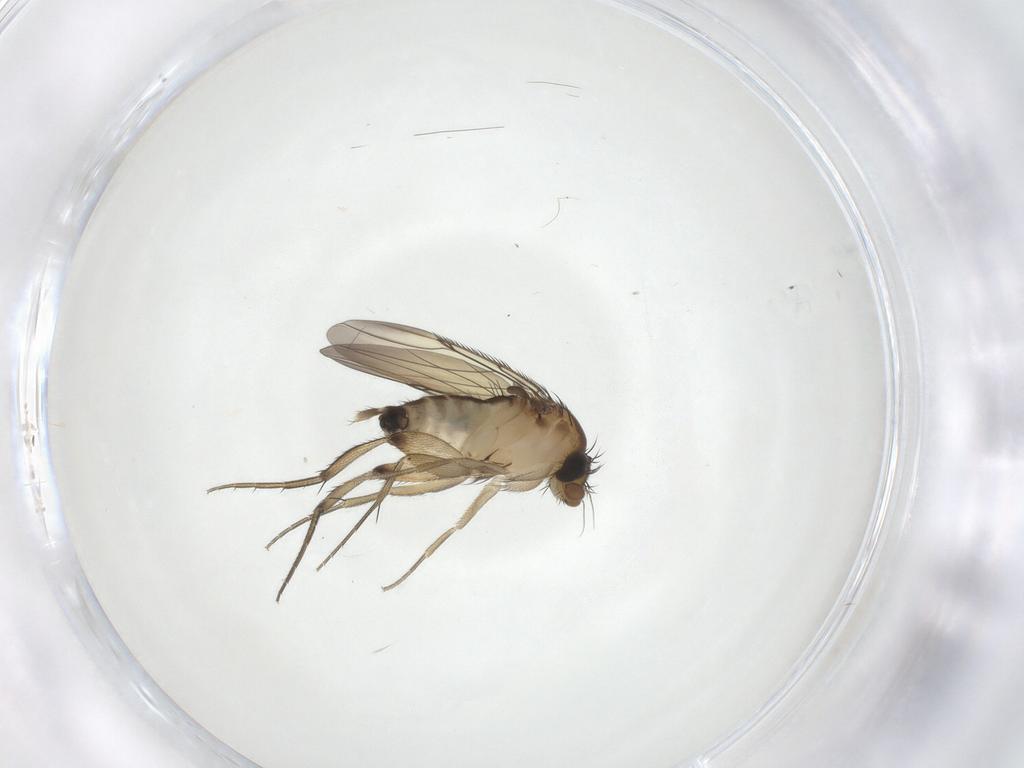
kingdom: Animalia
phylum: Arthropoda
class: Insecta
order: Diptera
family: Phoridae
